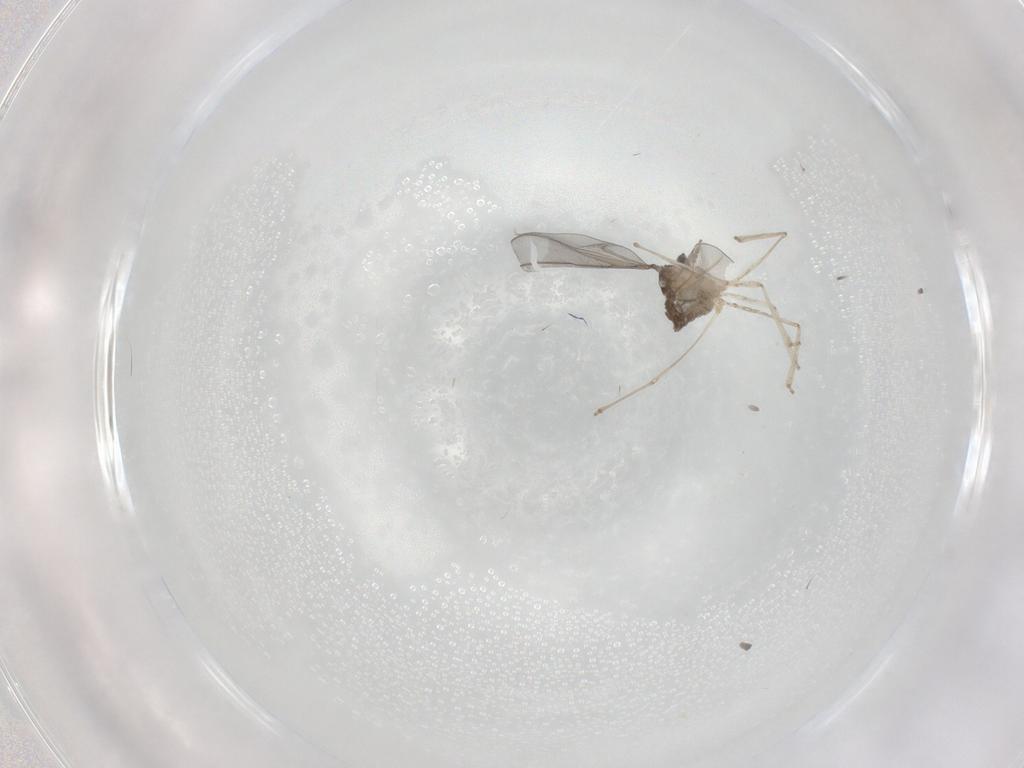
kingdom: Animalia
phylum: Arthropoda
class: Insecta
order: Diptera
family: Cecidomyiidae
